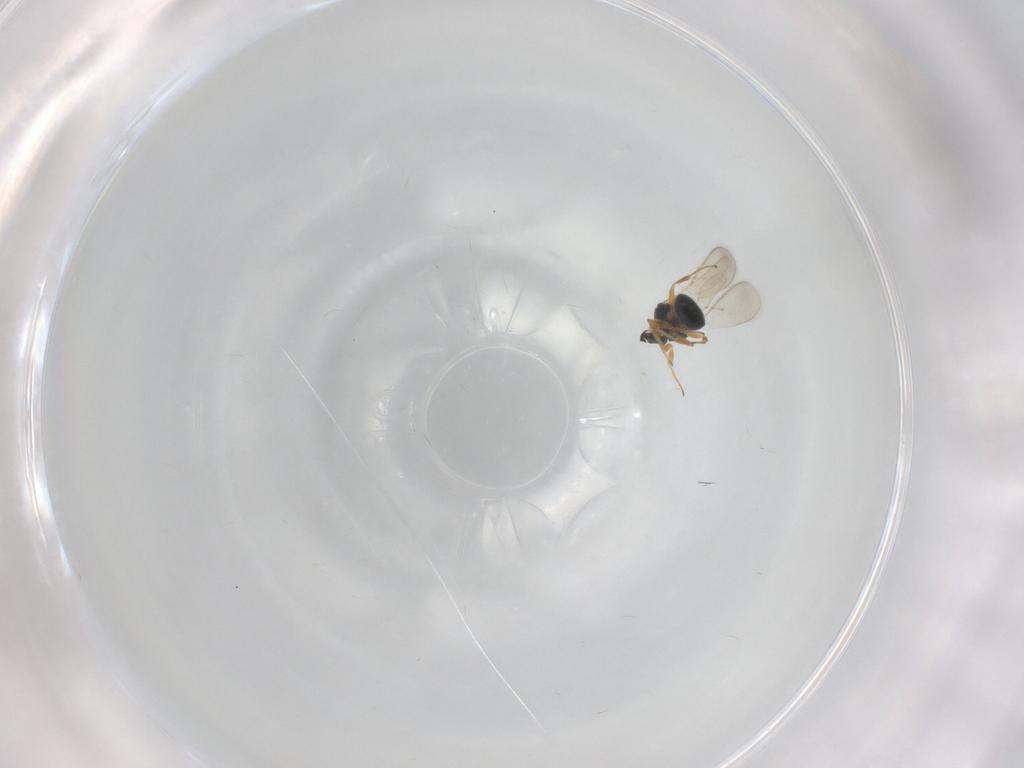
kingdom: Animalia
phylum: Arthropoda
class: Insecta
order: Hymenoptera
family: Scelionidae
